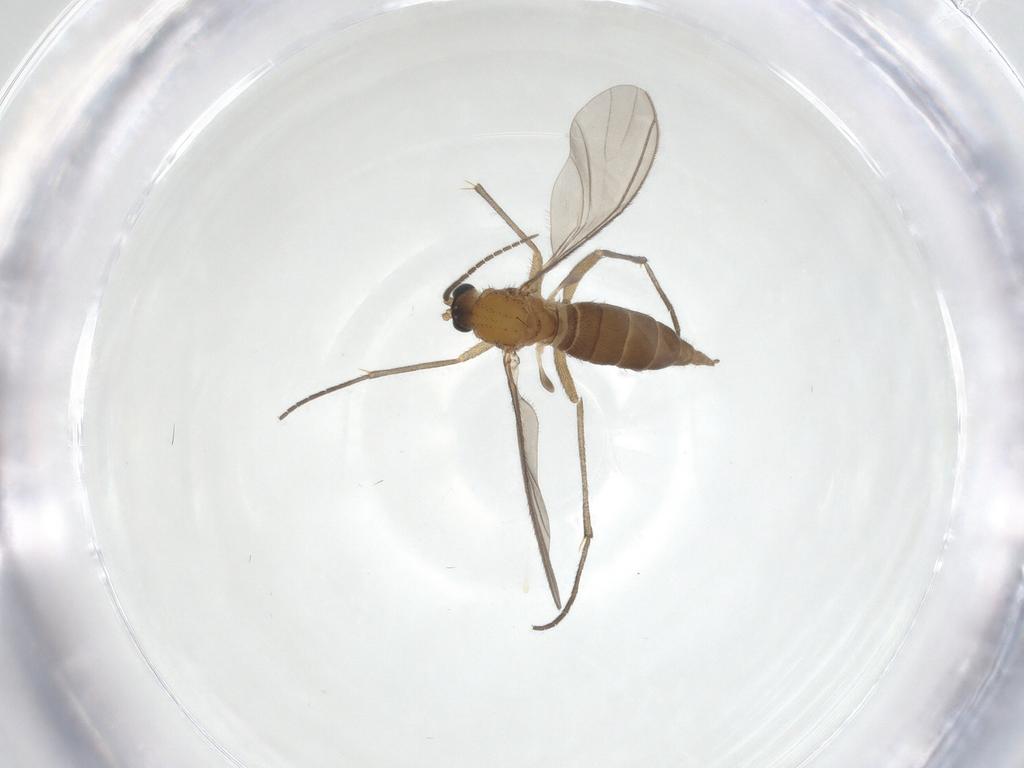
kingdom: Animalia
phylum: Arthropoda
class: Insecta
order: Diptera
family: Sciaridae
